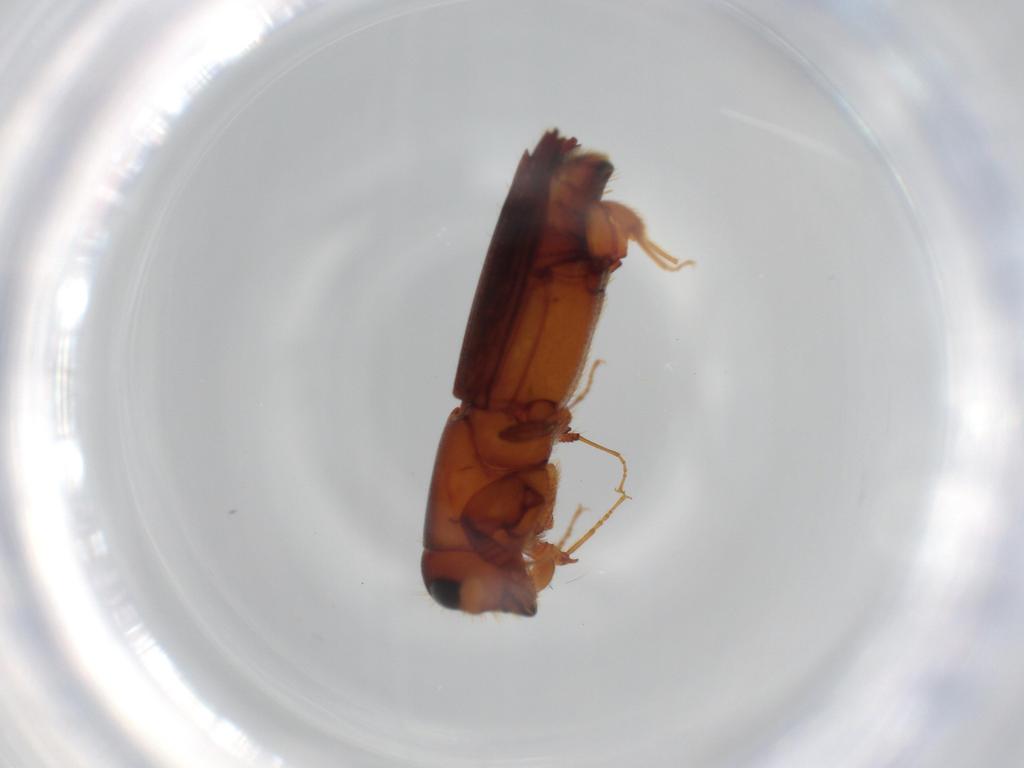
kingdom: Animalia
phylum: Arthropoda
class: Insecta
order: Coleoptera
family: Curculionidae
